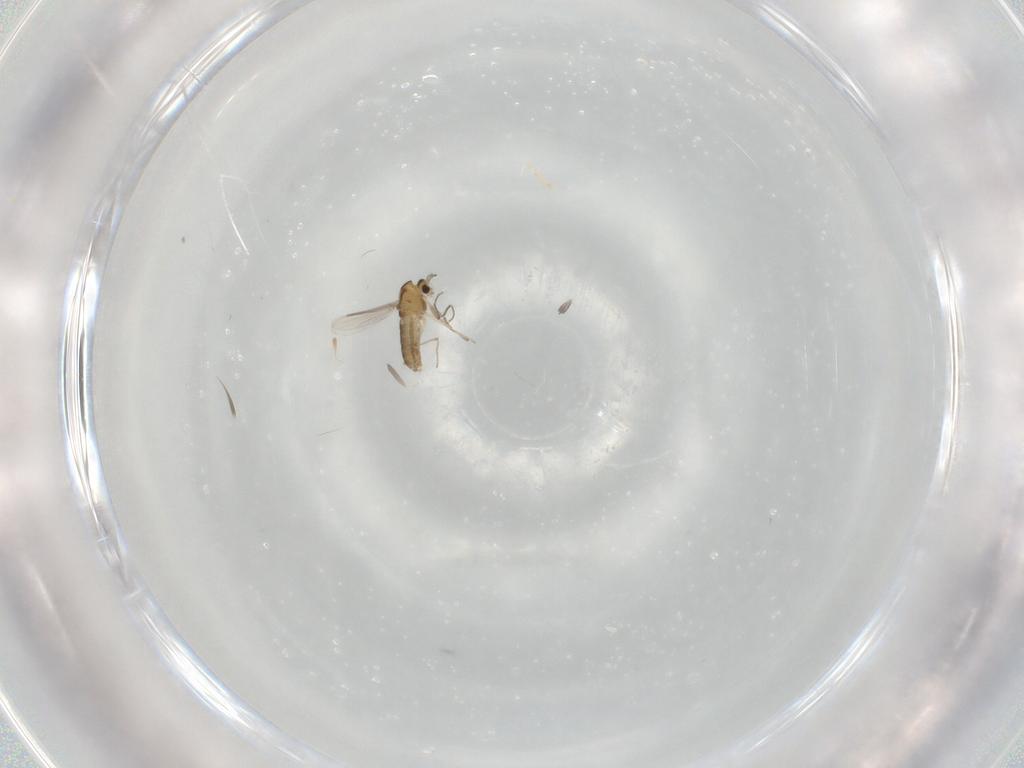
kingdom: Animalia
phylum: Arthropoda
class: Insecta
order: Diptera
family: Chironomidae
